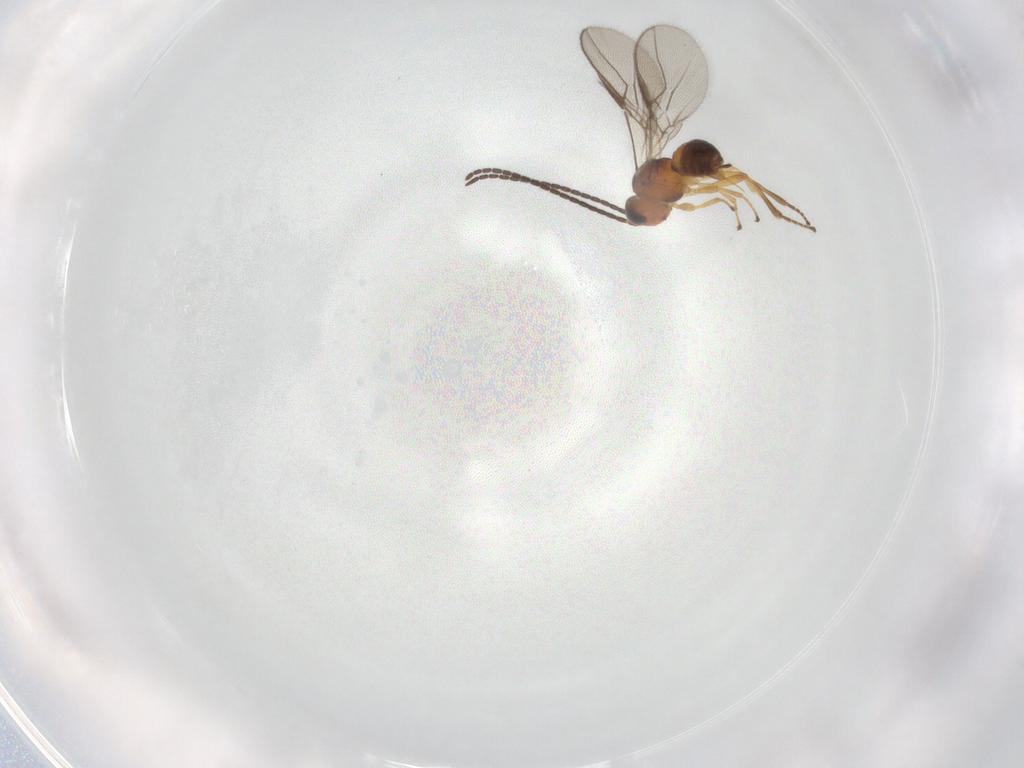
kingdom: Animalia
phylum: Arthropoda
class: Insecta
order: Hymenoptera
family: Braconidae
